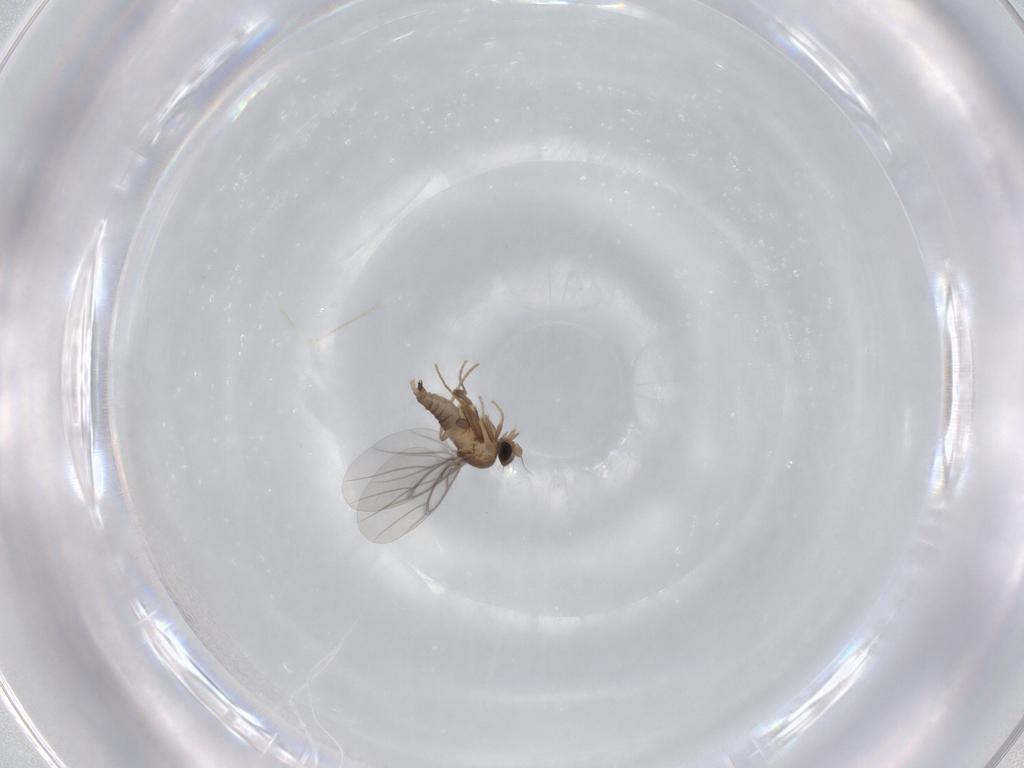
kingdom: Animalia
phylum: Arthropoda
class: Insecta
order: Diptera
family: Cecidomyiidae
